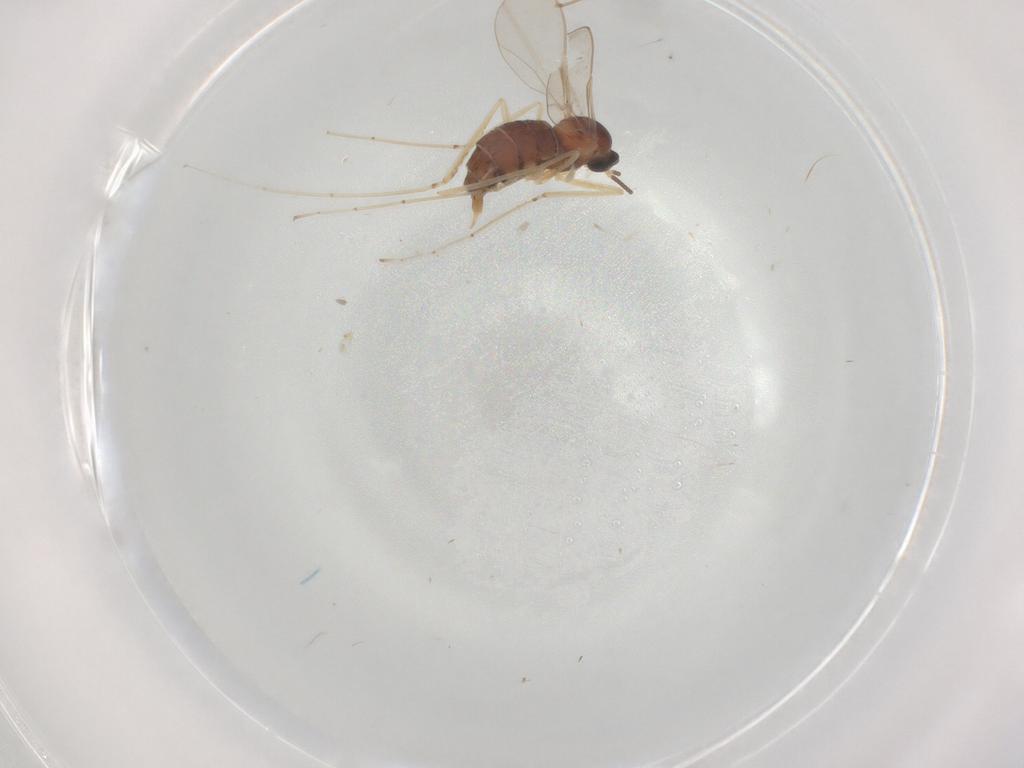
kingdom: Animalia
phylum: Arthropoda
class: Insecta
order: Diptera
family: Cecidomyiidae
